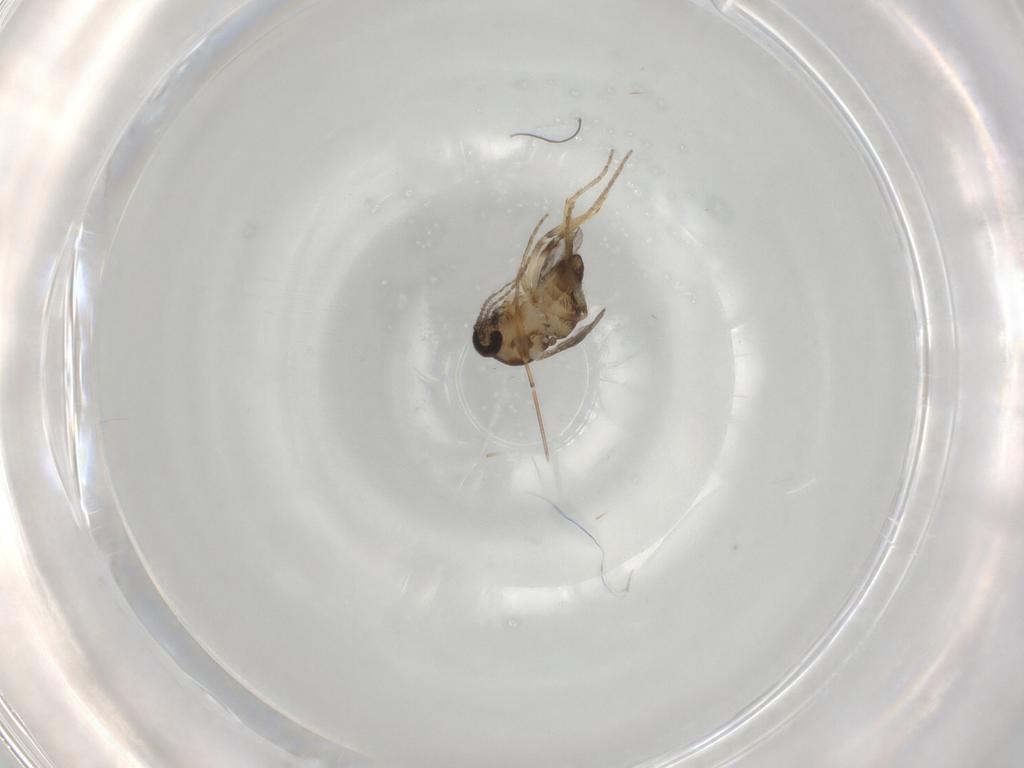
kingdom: Animalia
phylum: Arthropoda
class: Insecta
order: Diptera
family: Ceratopogonidae
